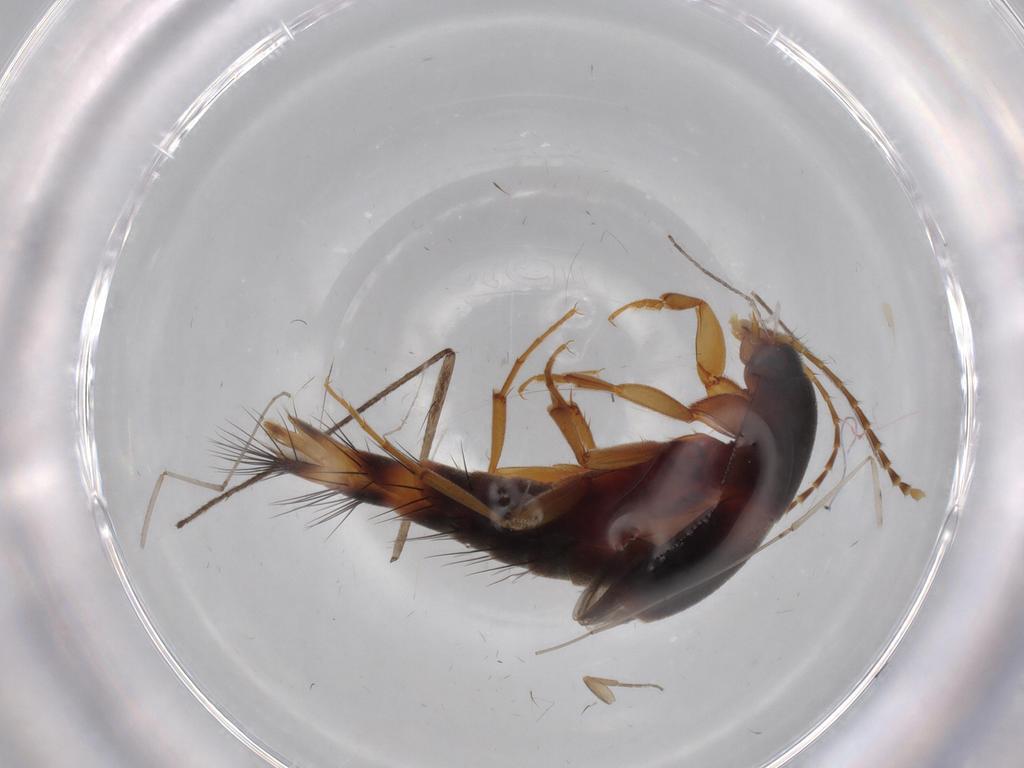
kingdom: Animalia
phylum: Arthropoda
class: Insecta
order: Coleoptera
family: Staphylinidae
